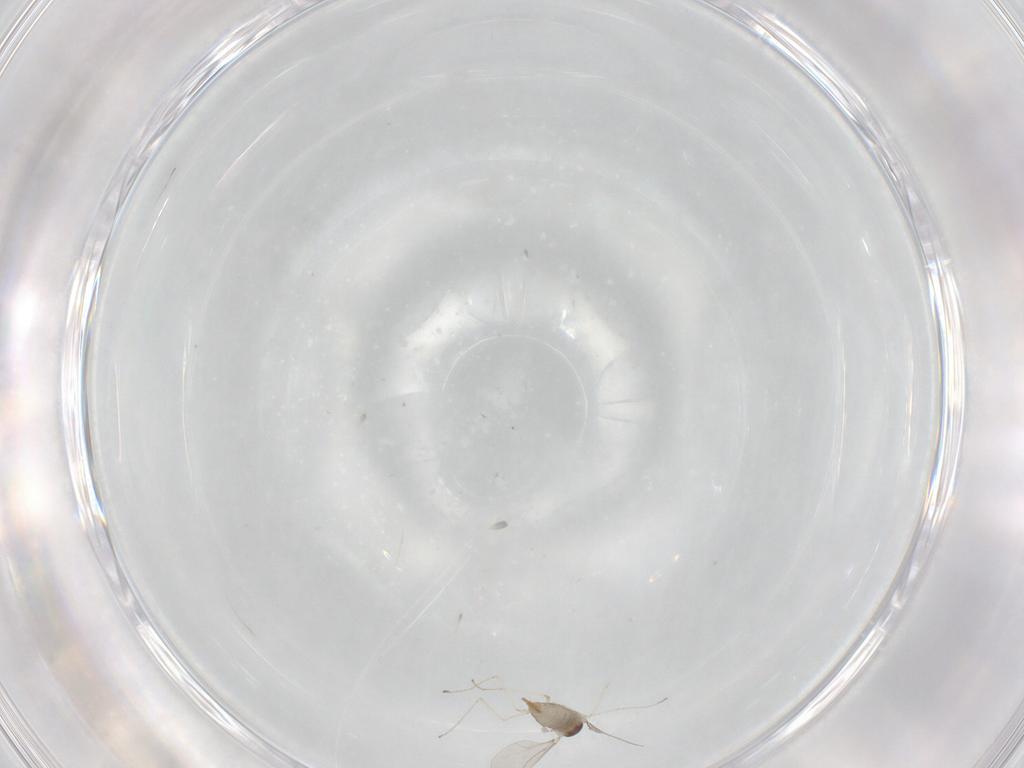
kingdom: Animalia
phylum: Arthropoda
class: Insecta
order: Diptera
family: Cecidomyiidae
